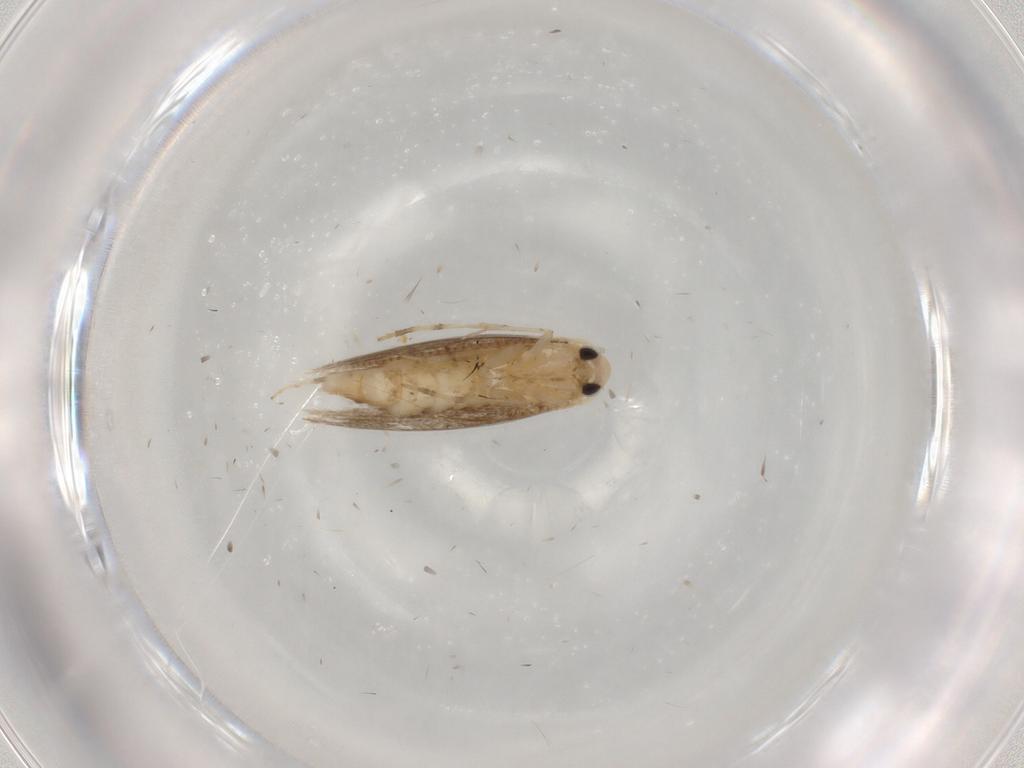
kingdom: Animalia
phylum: Arthropoda
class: Insecta
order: Lepidoptera
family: Gracillariidae
